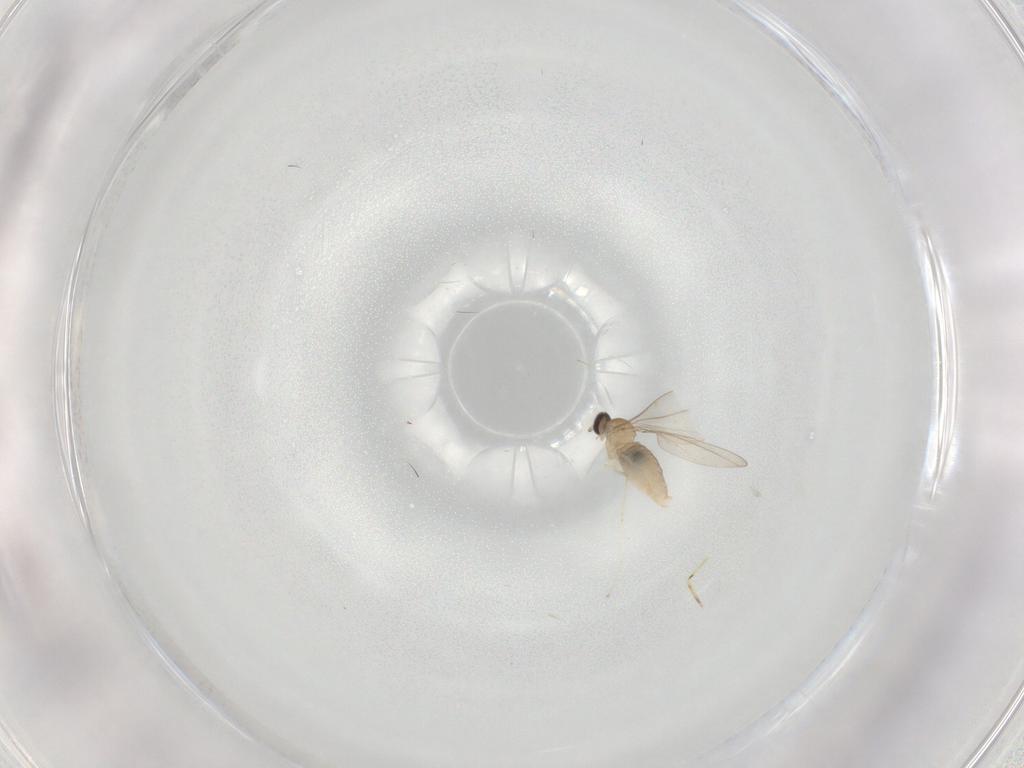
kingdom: Animalia
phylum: Arthropoda
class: Insecta
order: Diptera
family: Cecidomyiidae
